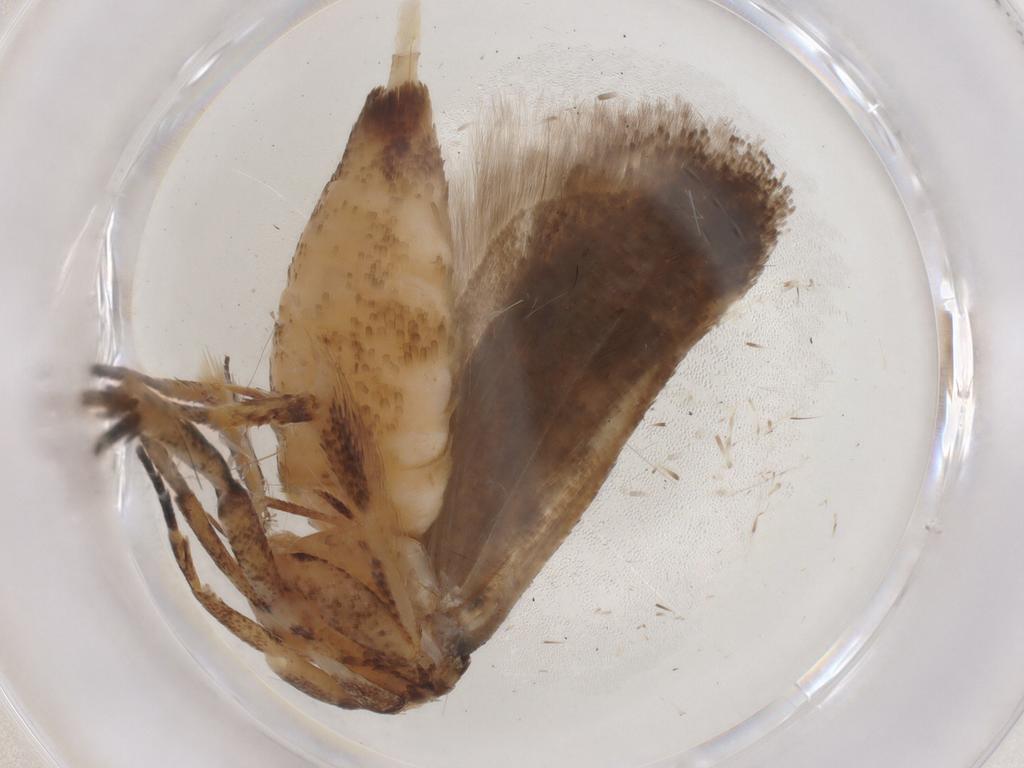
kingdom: Animalia
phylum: Arthropoda
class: Insecta
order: Lepidoptera
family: Gelechiidae
